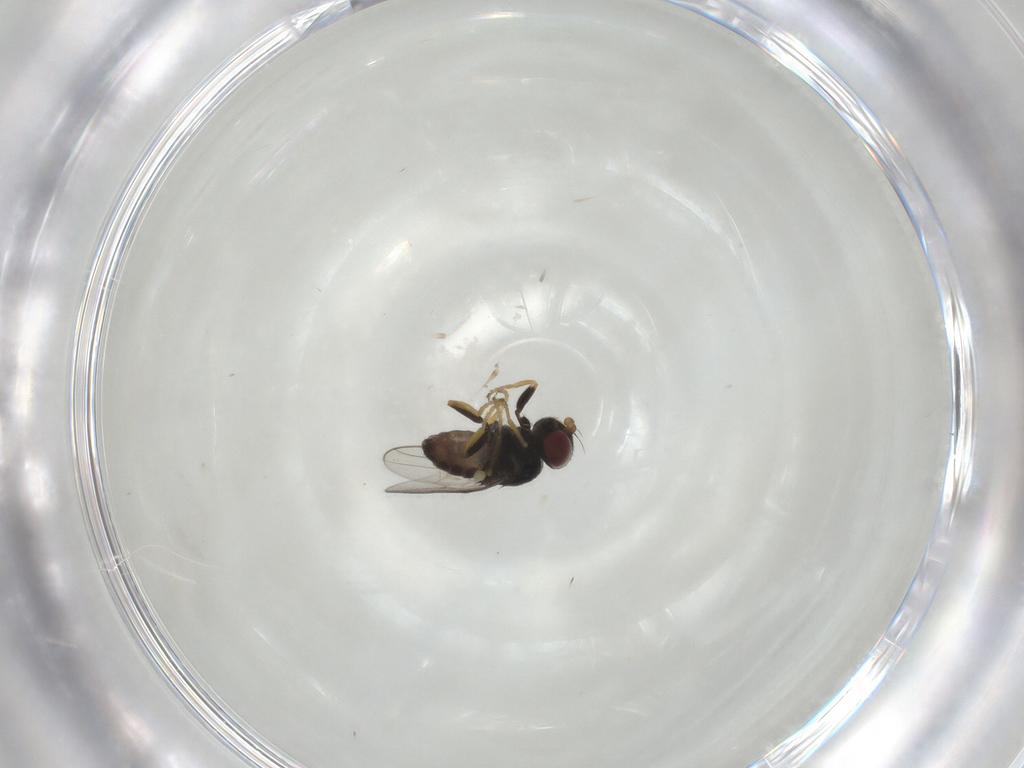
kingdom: Animalia
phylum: Arthropoda
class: Insecta
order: Diptera
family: Chloropidae
